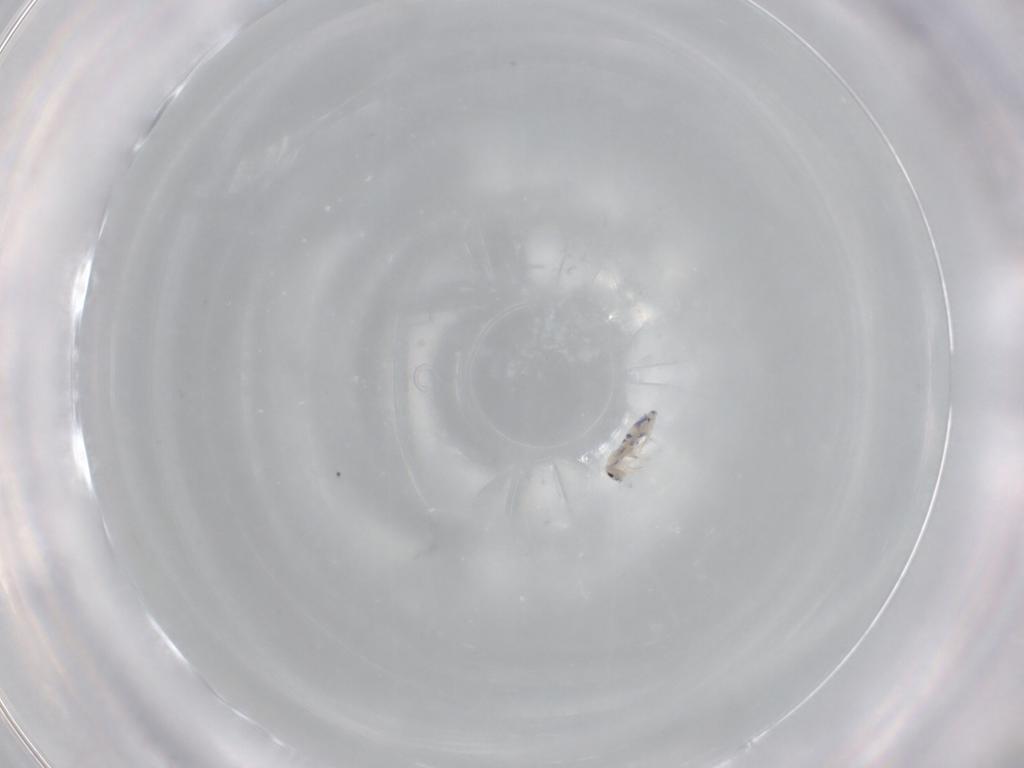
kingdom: Animalia
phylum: Arthropoda
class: Collembola
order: Entomobryomorpha
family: Entomobryidae
